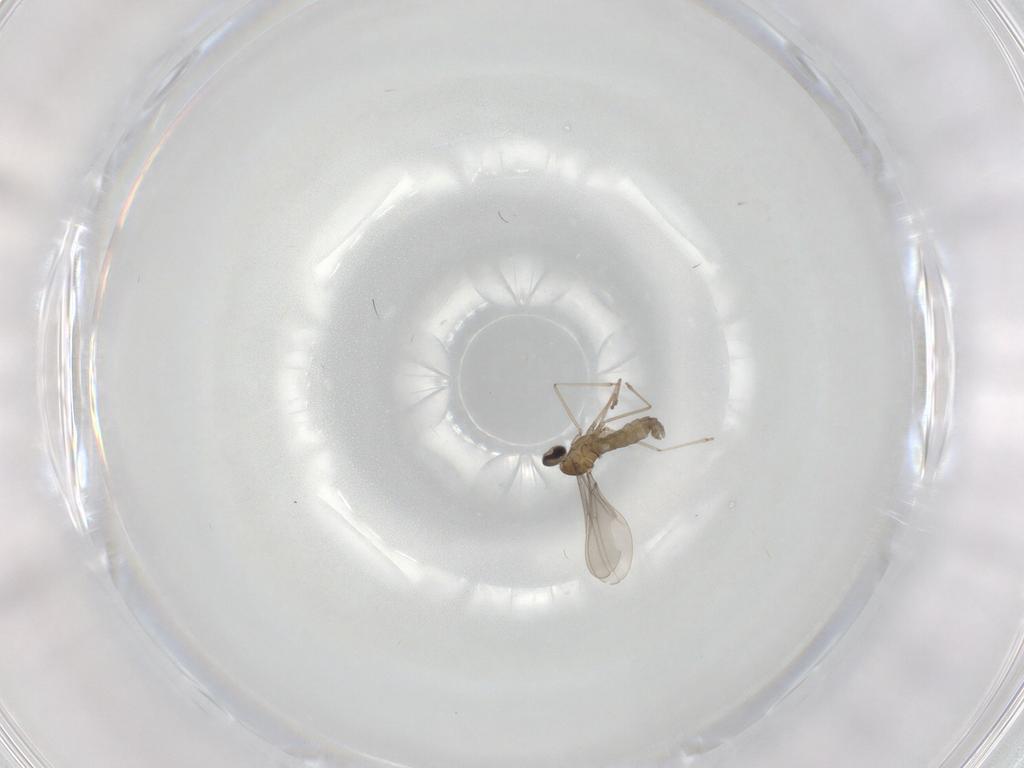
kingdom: Animalia
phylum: Arthropoda
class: Insecta
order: Diptera
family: Cecidomyiidae
